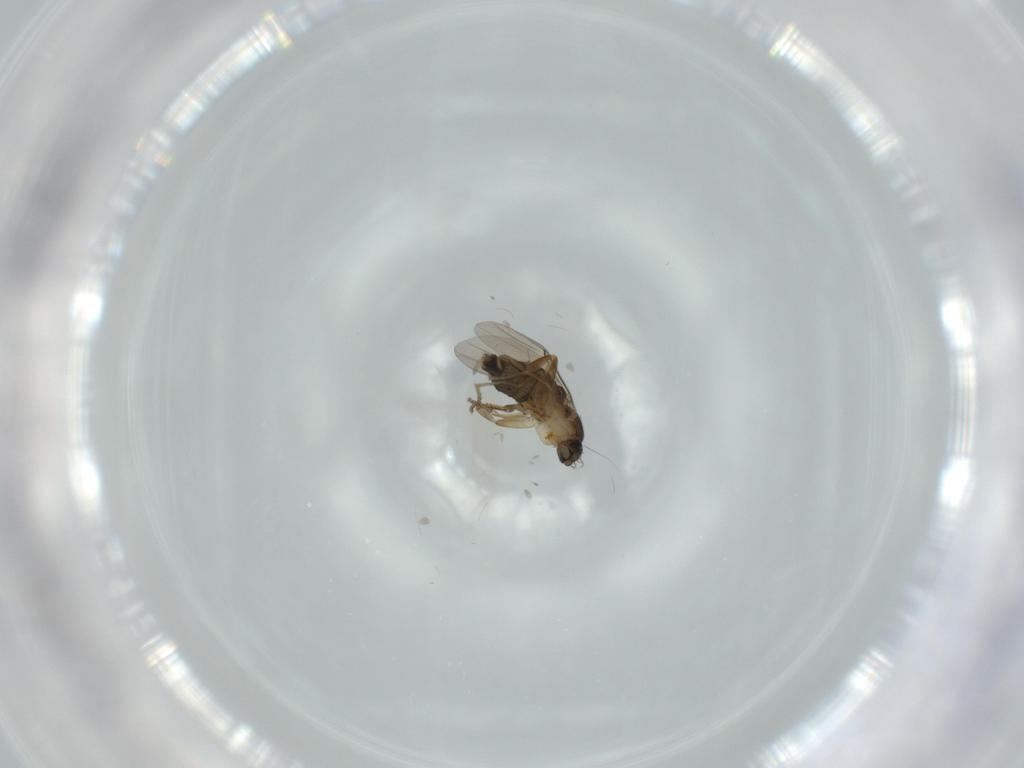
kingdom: Animalia
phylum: Arthropoda
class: Insecta
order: Diptera
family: Phoridae
